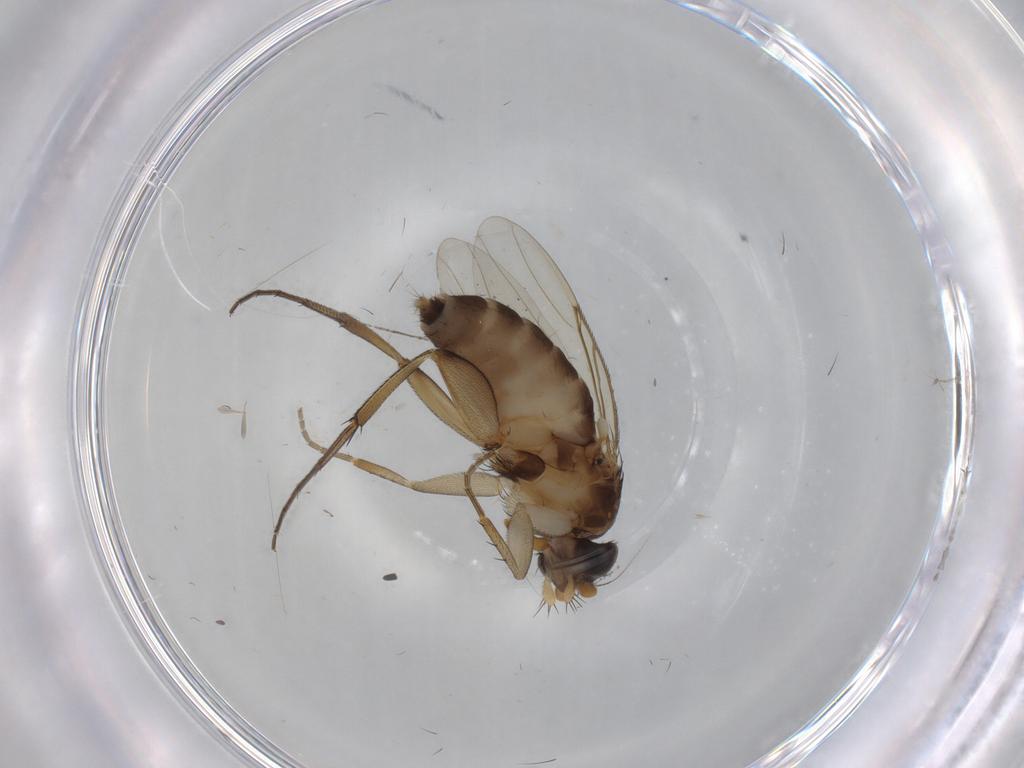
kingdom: Animalia
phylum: Arthropoda
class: Insecta
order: Diptera
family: Phoridae
